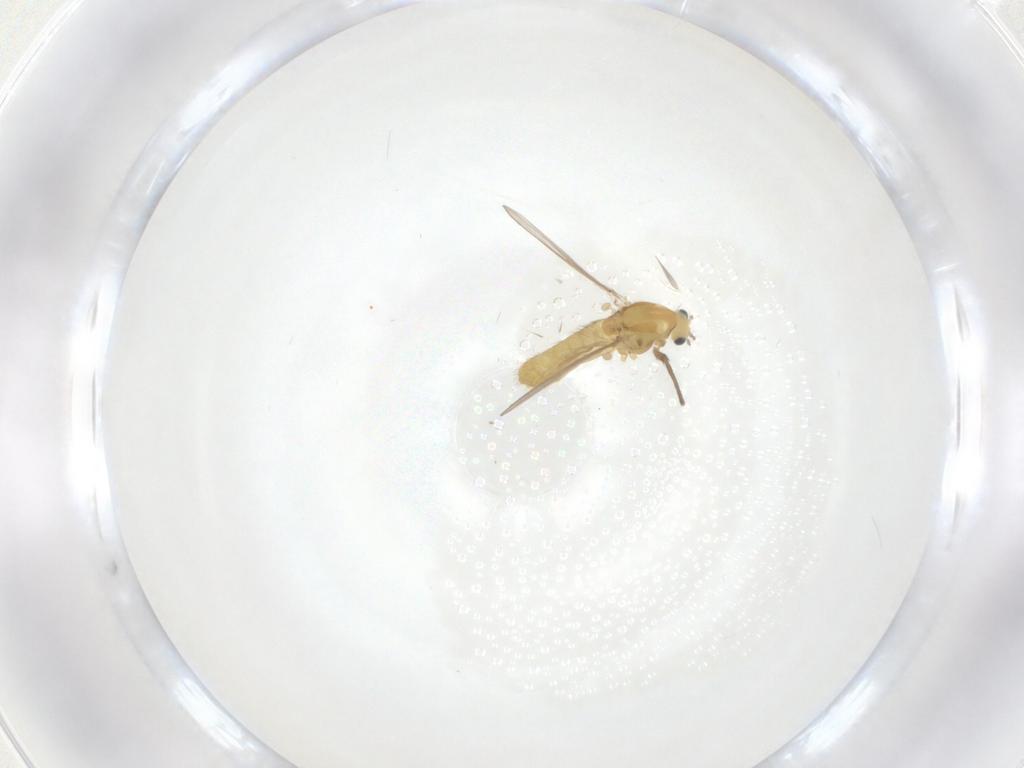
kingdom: Animalia
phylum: Arthropoda
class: Insecta
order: Diptera
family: Chironomidae
